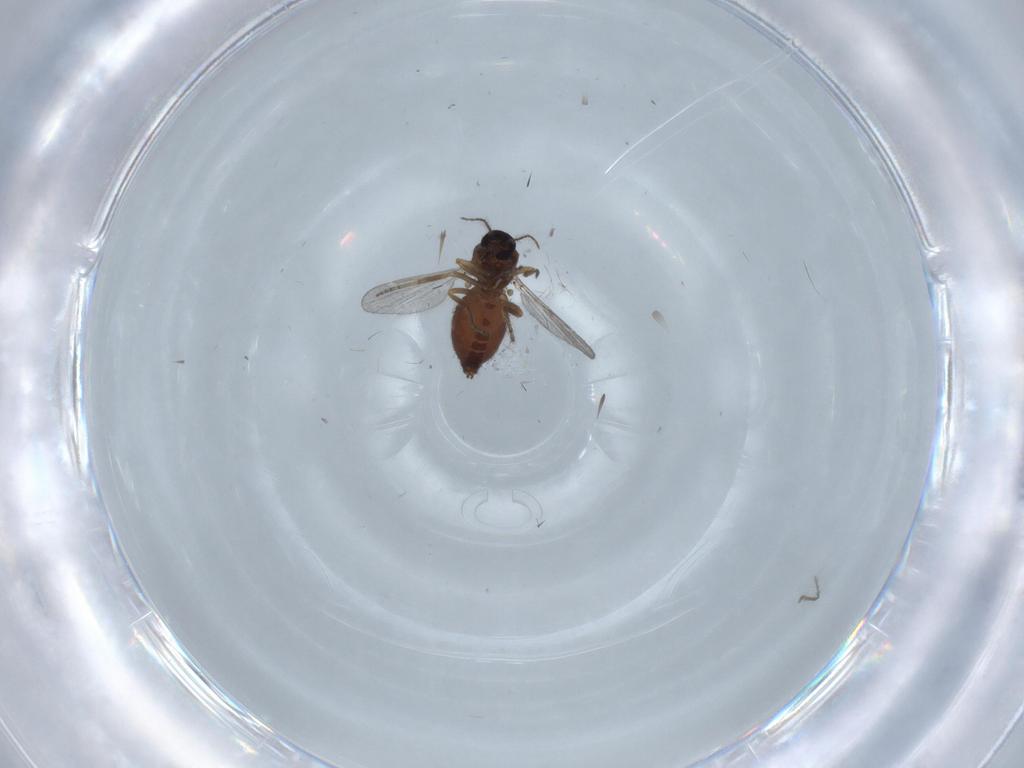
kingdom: Animalia
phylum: Arthropoda
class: Insecta
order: Diptera
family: Ceratopogonidae
